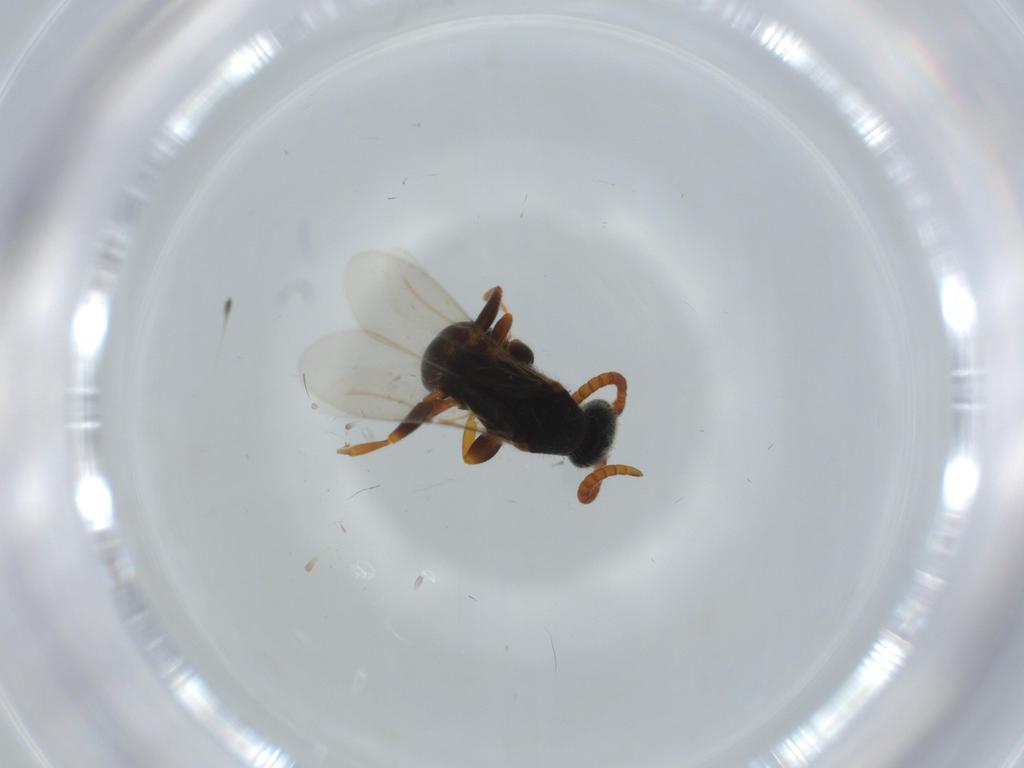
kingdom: Animalia
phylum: Arthropoda
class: Insecta
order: Hymenoptera
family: Bethylidae
